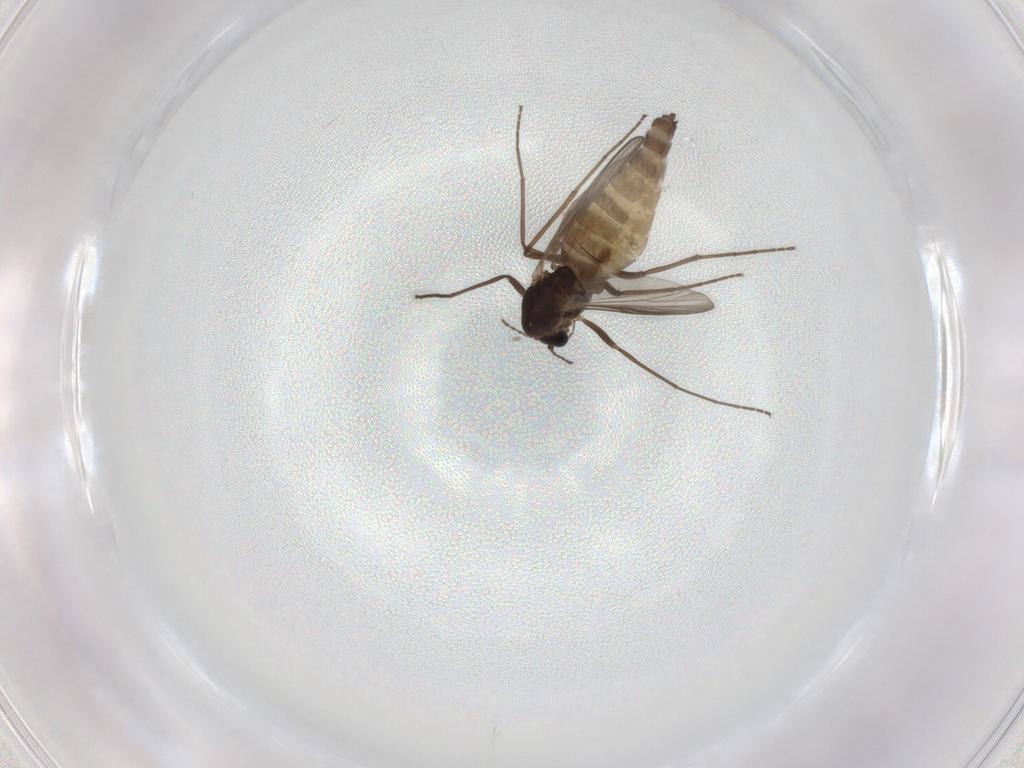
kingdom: Animalia
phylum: Arthropoda
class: Insecta
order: Diptera
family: Chironomidae
